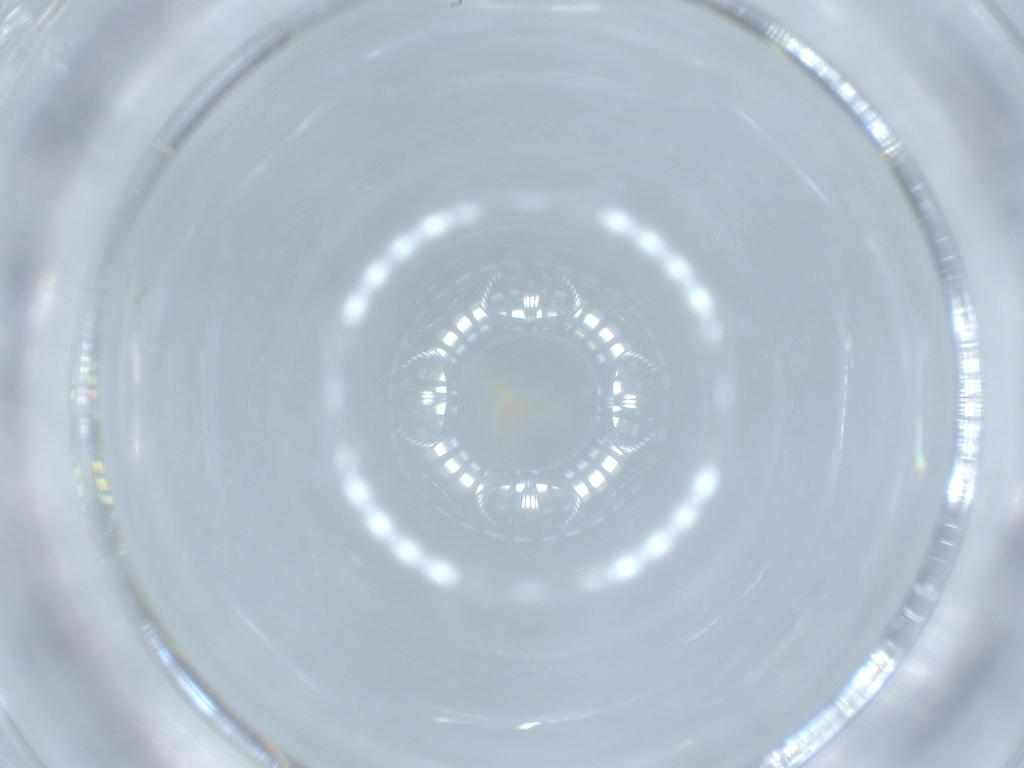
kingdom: Animalia
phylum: Arthropoda
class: Insecta
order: Diptera
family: Cecidomyiidae
